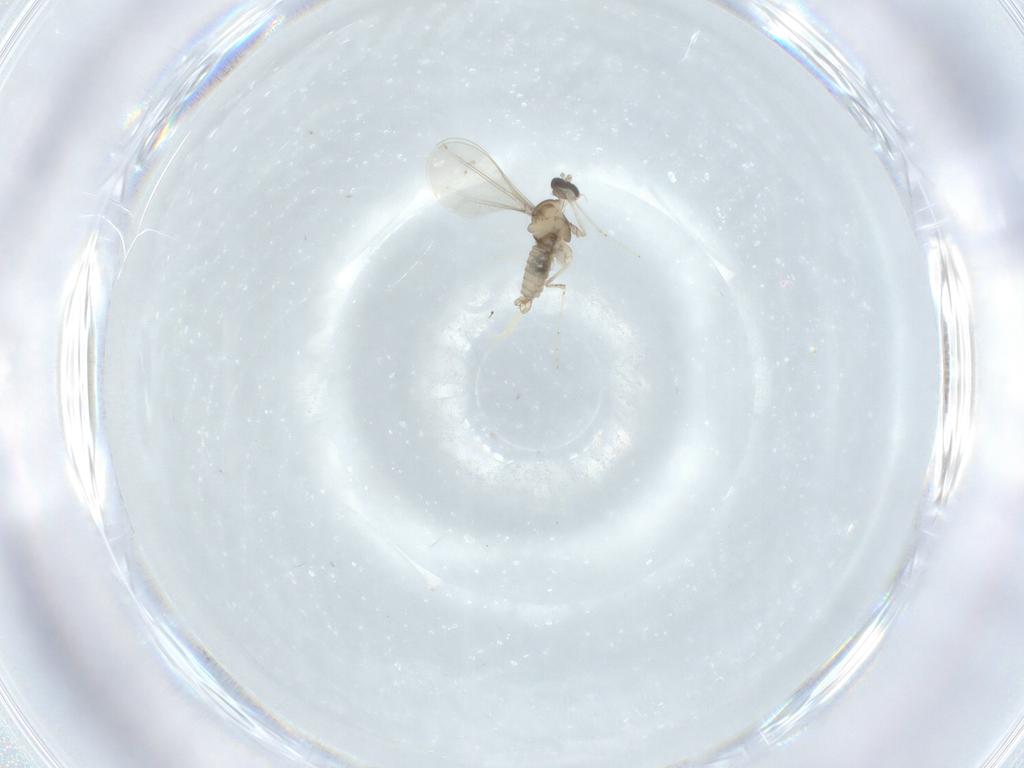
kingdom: Animalia
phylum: Arthropoda
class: Insecta
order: Diptera
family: Cecidomyiidae
